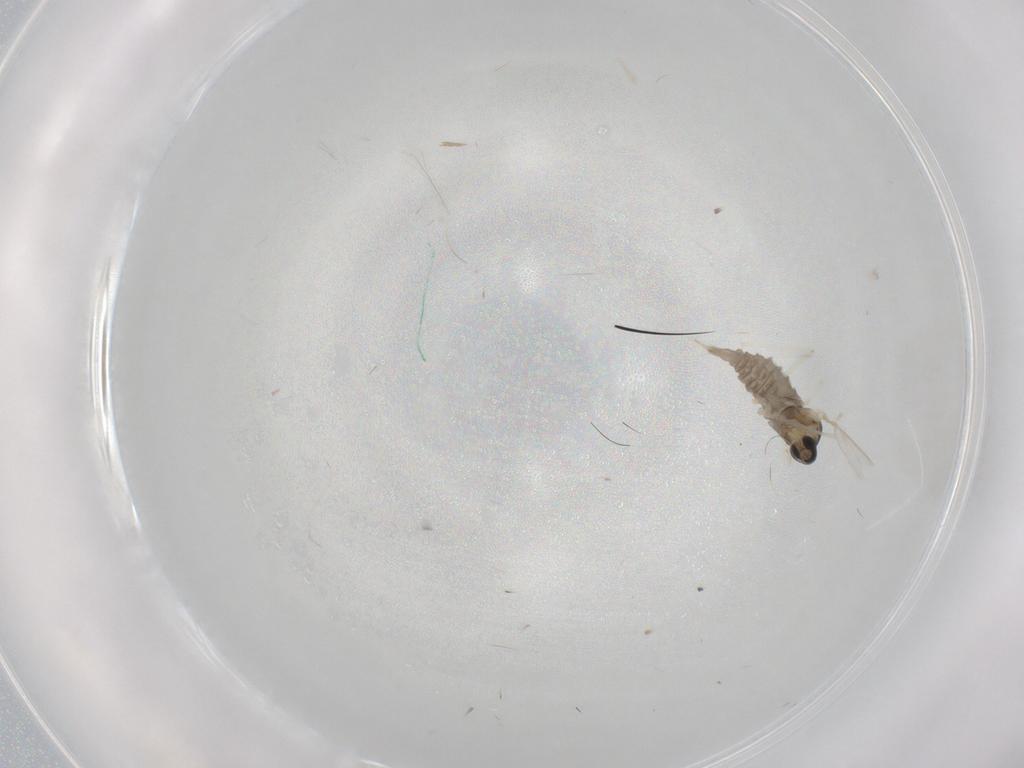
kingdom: Animalia
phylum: Arthropoda
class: Insecta
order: Diptera
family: Cecidomyiidae
